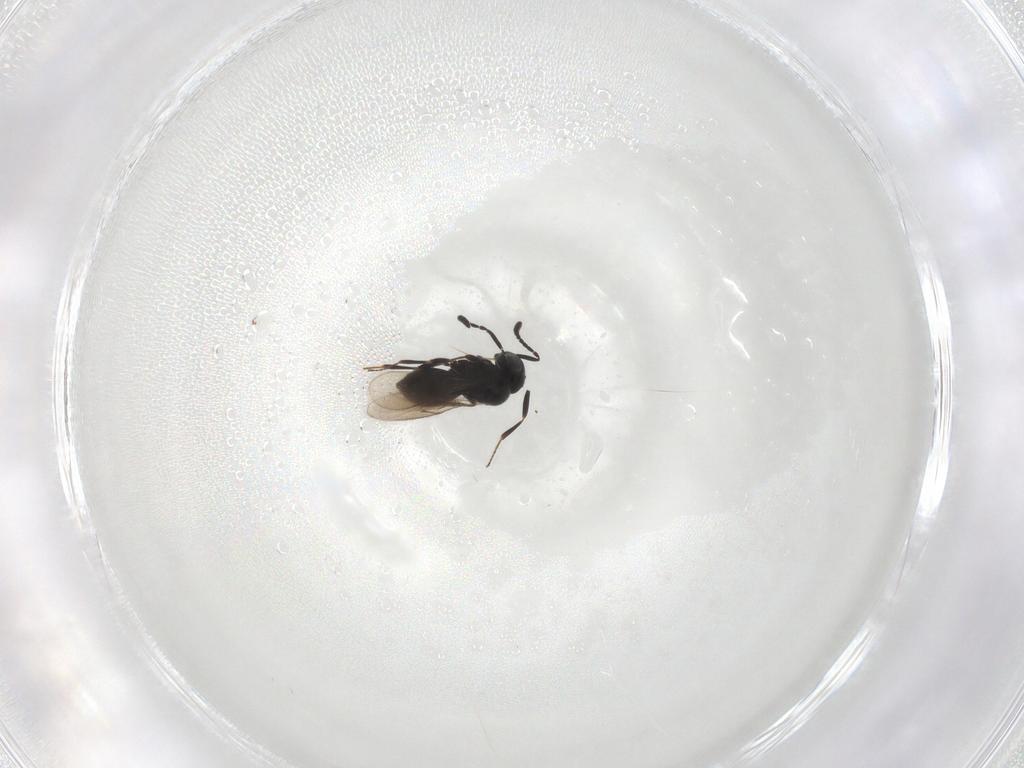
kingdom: Animalia
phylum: Arthropoda
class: Insecta
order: Hymenoptera
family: Scelionidae
